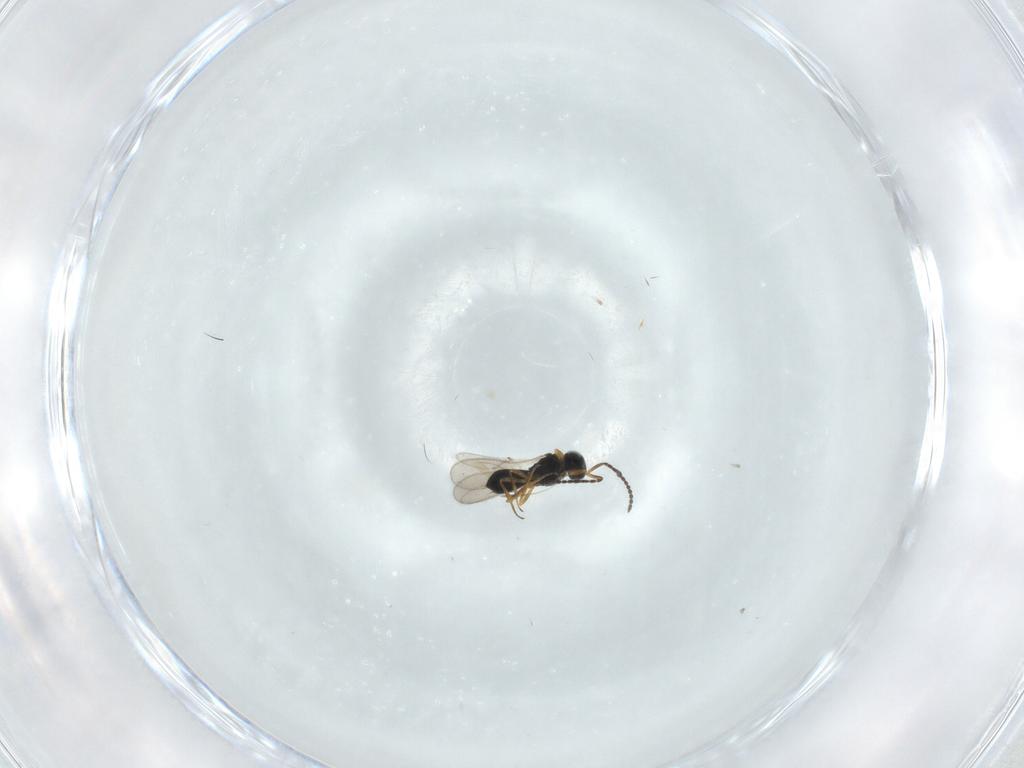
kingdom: Animalia
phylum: Arthropoda
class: Insecta
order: Hymenoptera
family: Scelionidae
